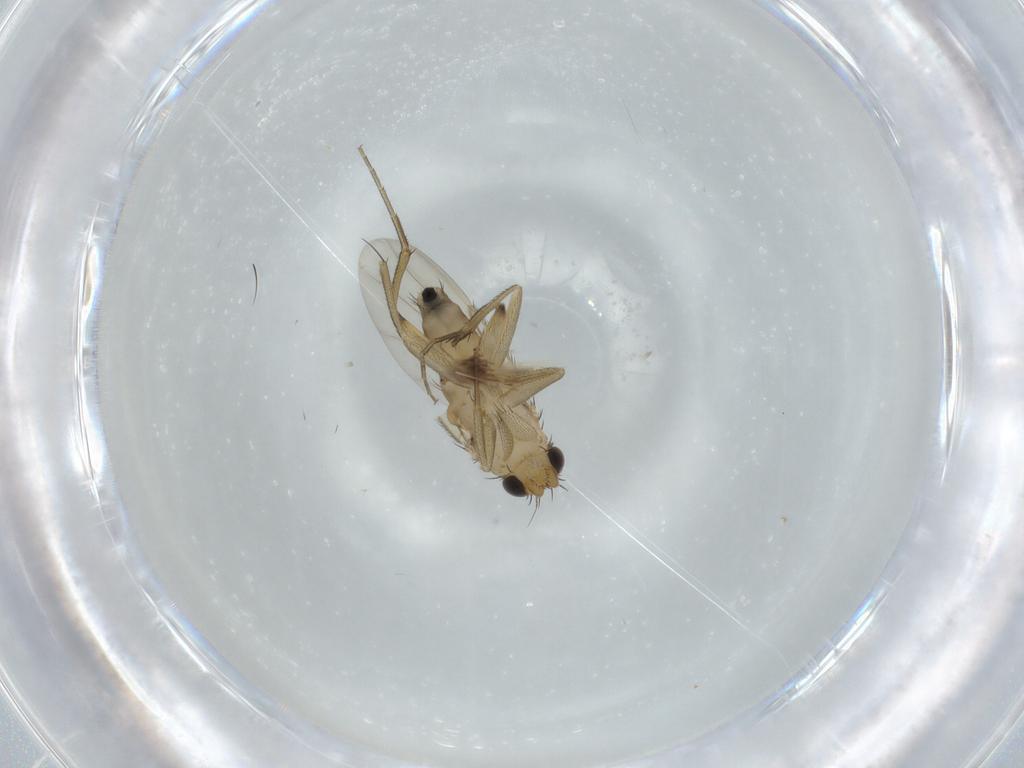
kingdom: Animalia
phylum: Arthropoda
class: Insecta
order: Diptera
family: Phoridae
